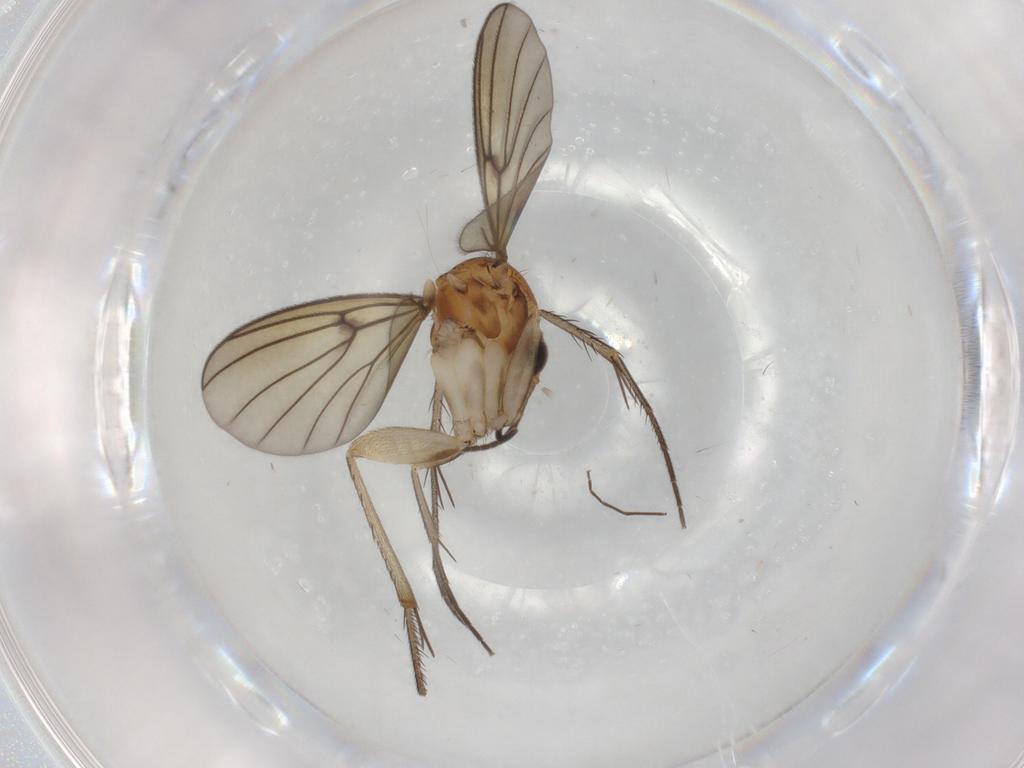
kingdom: Animalia
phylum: Arthropoda
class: Insecta
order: Diptera
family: Mycetophilidae
